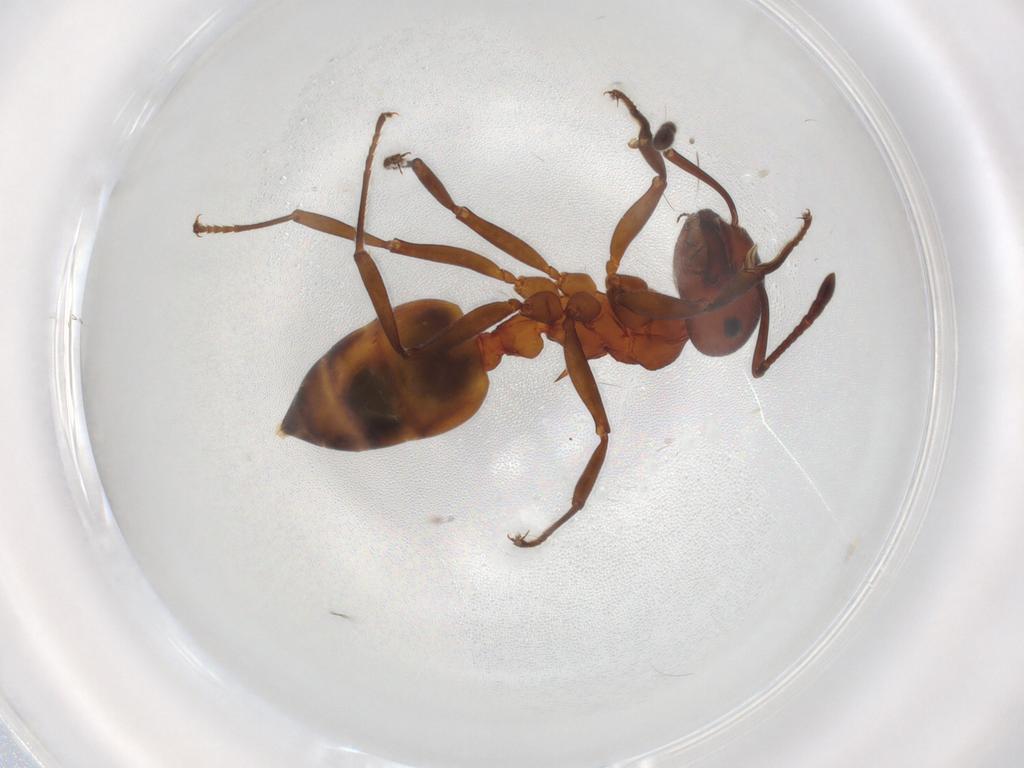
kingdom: Animalia
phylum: Arthropoda
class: Insecta
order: Hymenoptera
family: Formicidae
